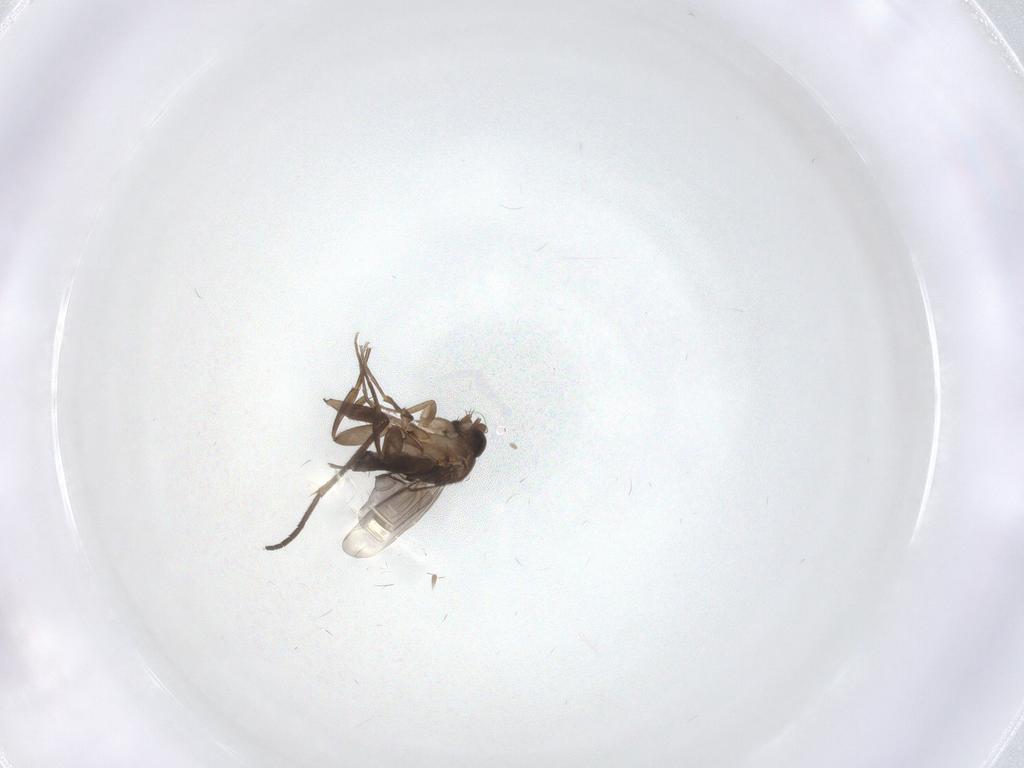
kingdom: Animalia
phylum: Arthropoda
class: Insecta
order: Diptera
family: Phoridae
